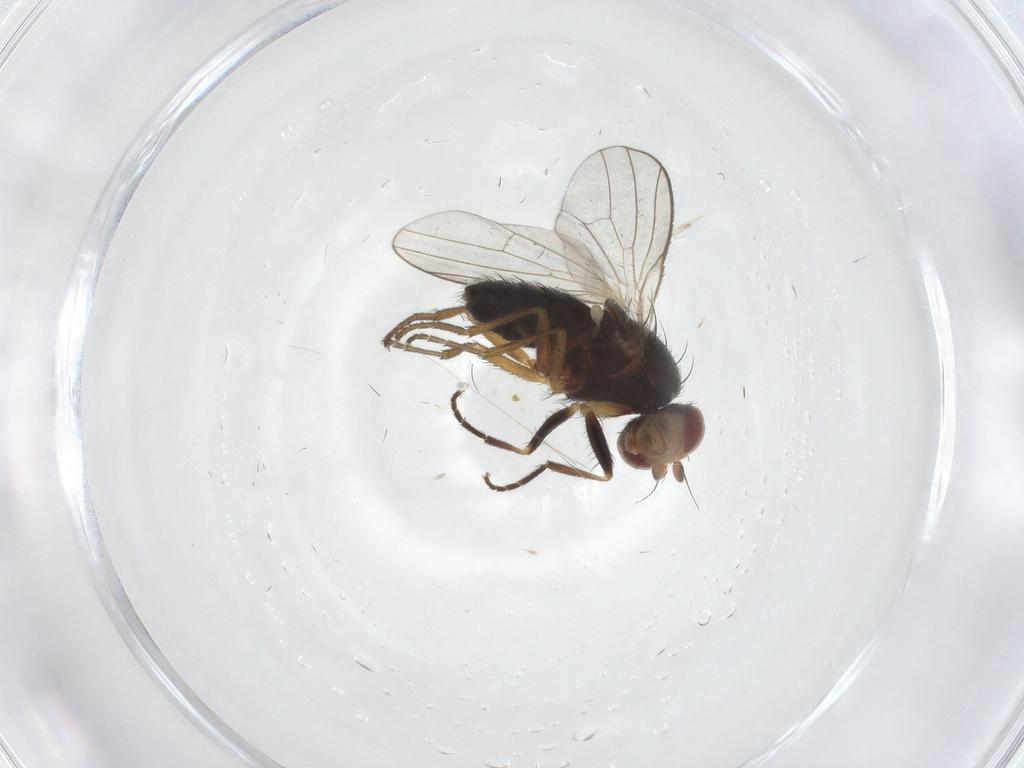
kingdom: Animalia
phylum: Arthropoda
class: Insecta
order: Diptera
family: Heleomyzidae
